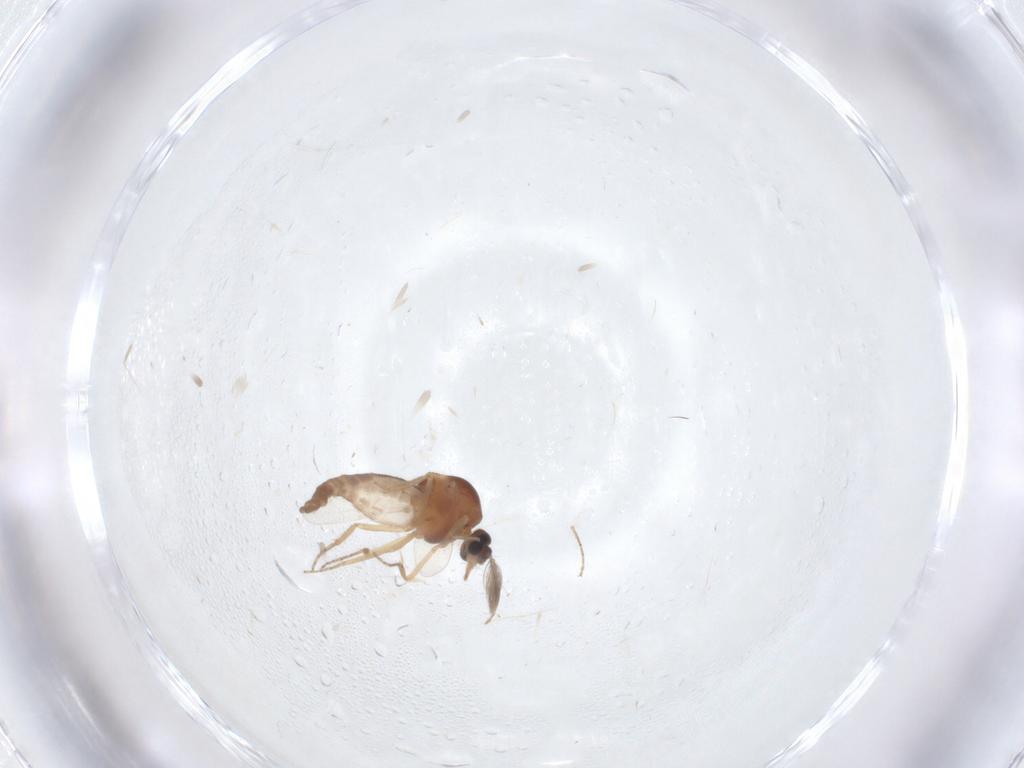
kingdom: Animalia
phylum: Arthropoda
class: Insecta
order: Diptera
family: Ceratopogonidae
